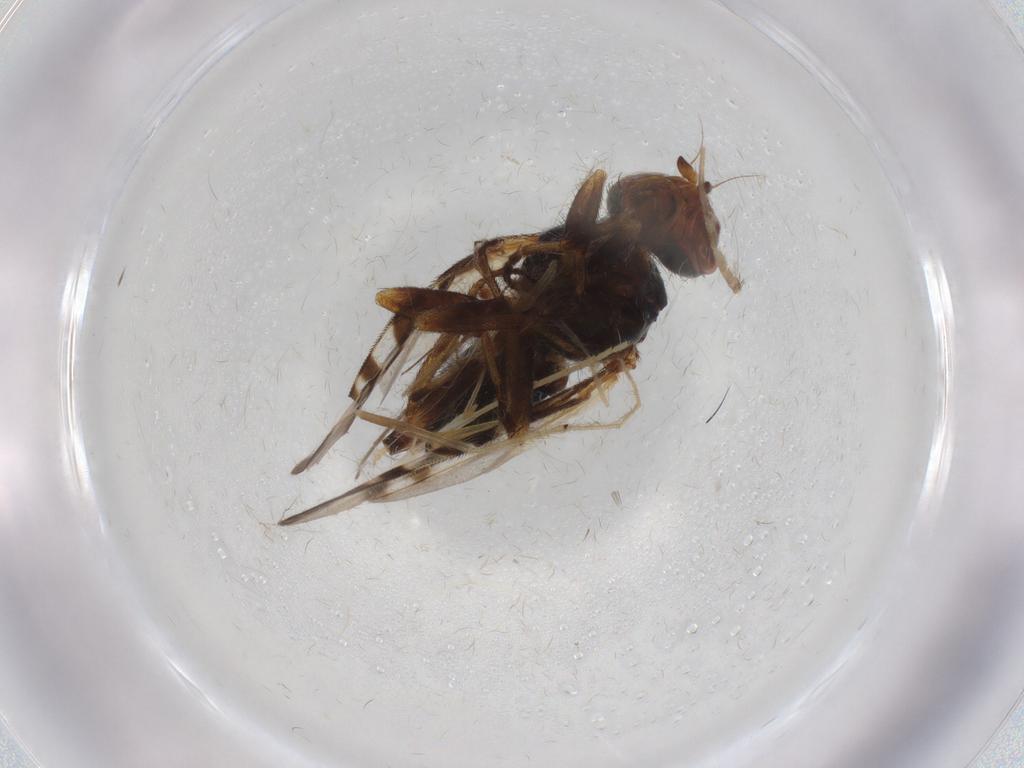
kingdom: Animalia
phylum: Arthropoda
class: Insecta
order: Diptera
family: Platystomatidae
